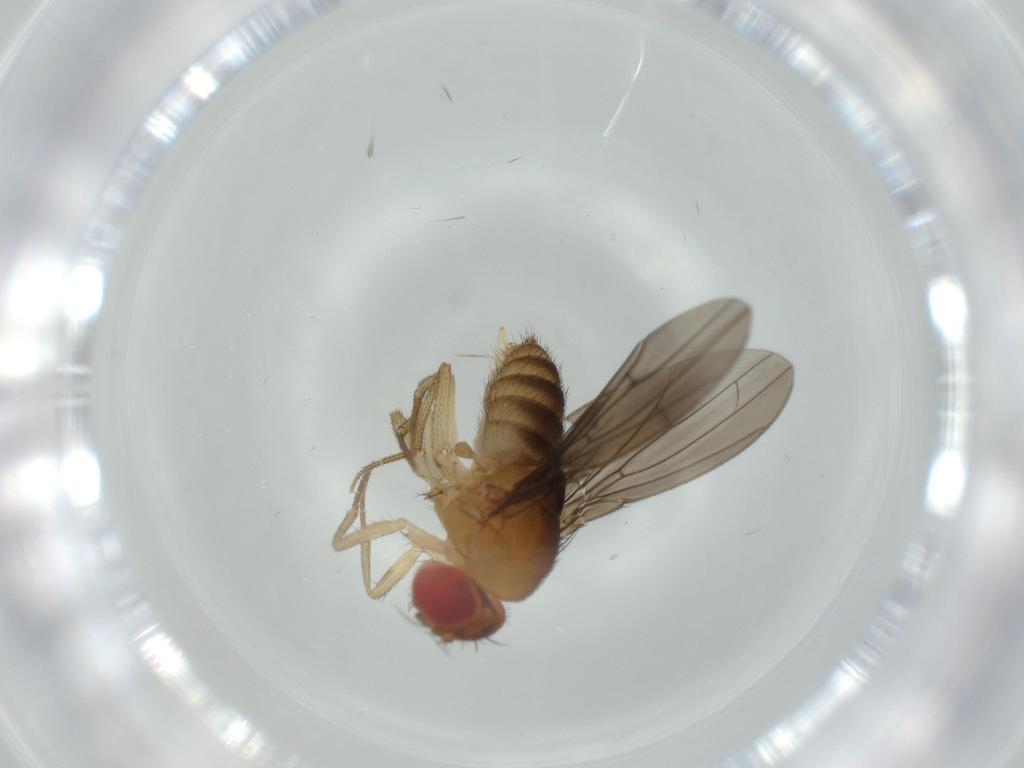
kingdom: Animalia
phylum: Arthropoda
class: Insecta
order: Diptera
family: Drosophilidae
